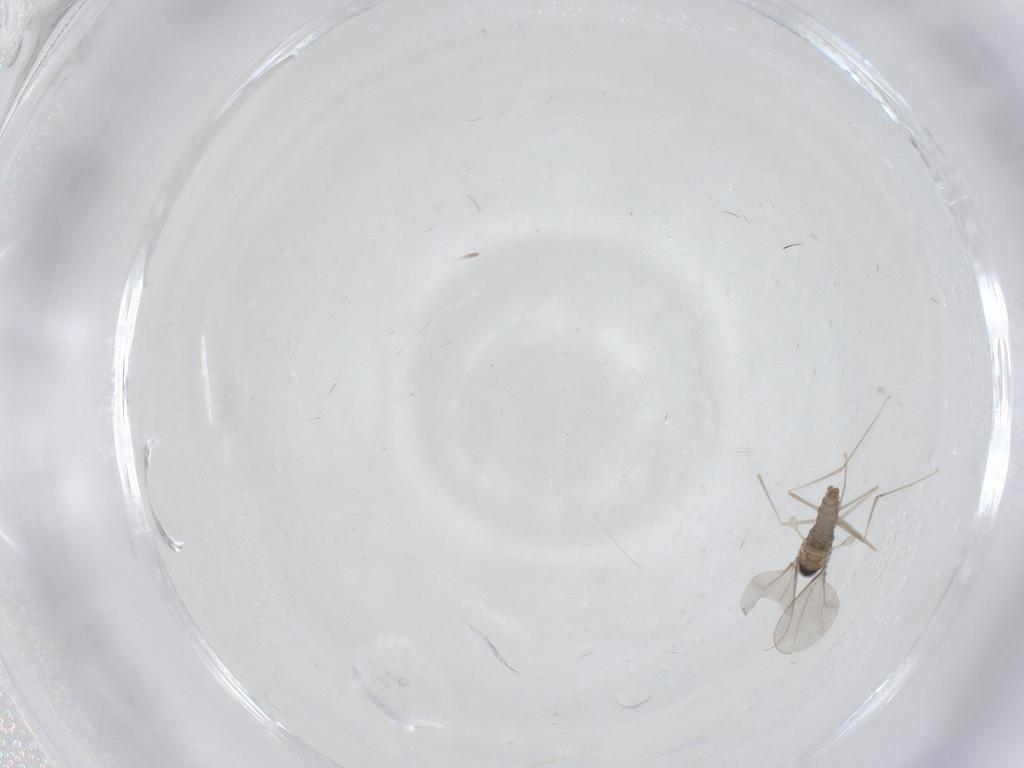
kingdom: Animalia
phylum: Arthropoda
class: Insecta
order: Diptera
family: Cecidomyiidae
